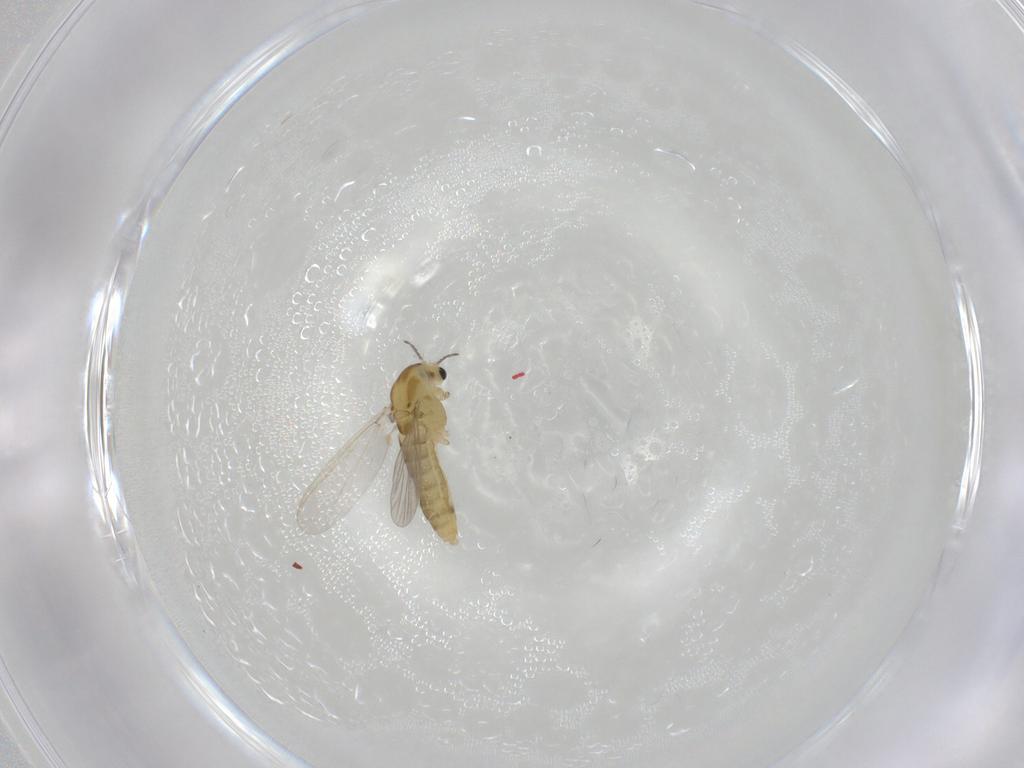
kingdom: Animalia
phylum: Arthropoda
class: Insecta
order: Diptera
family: Chironomidae
